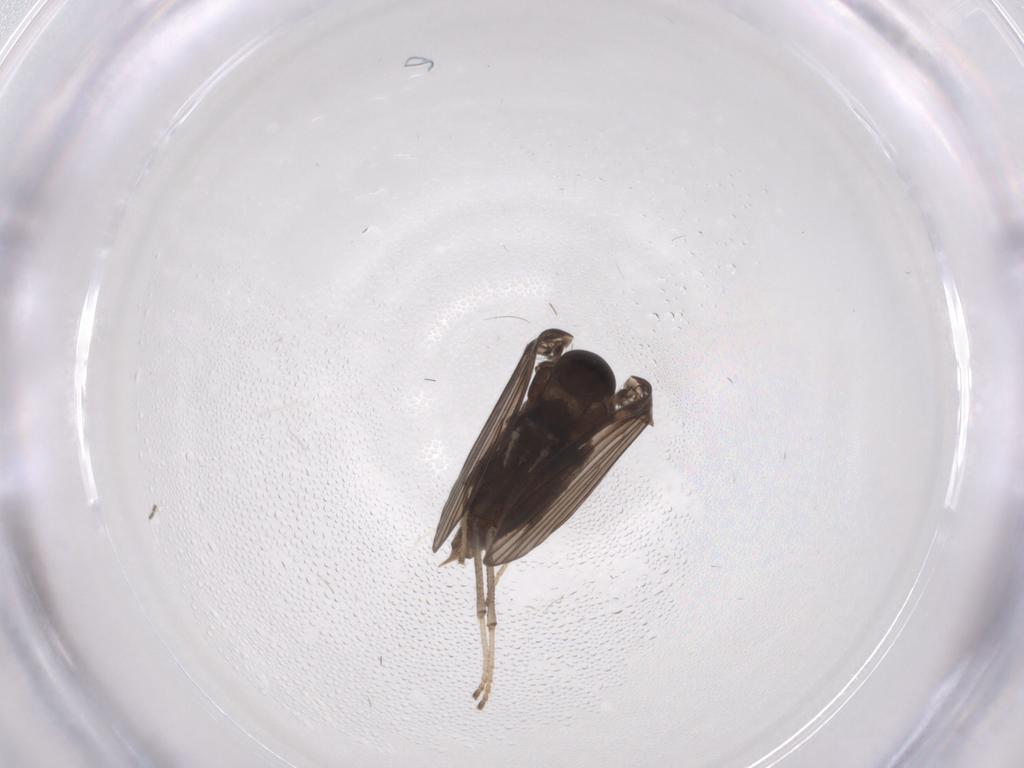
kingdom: Animalia
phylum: Arthropoda
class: Insecta
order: Diptera
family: Psychodidae
